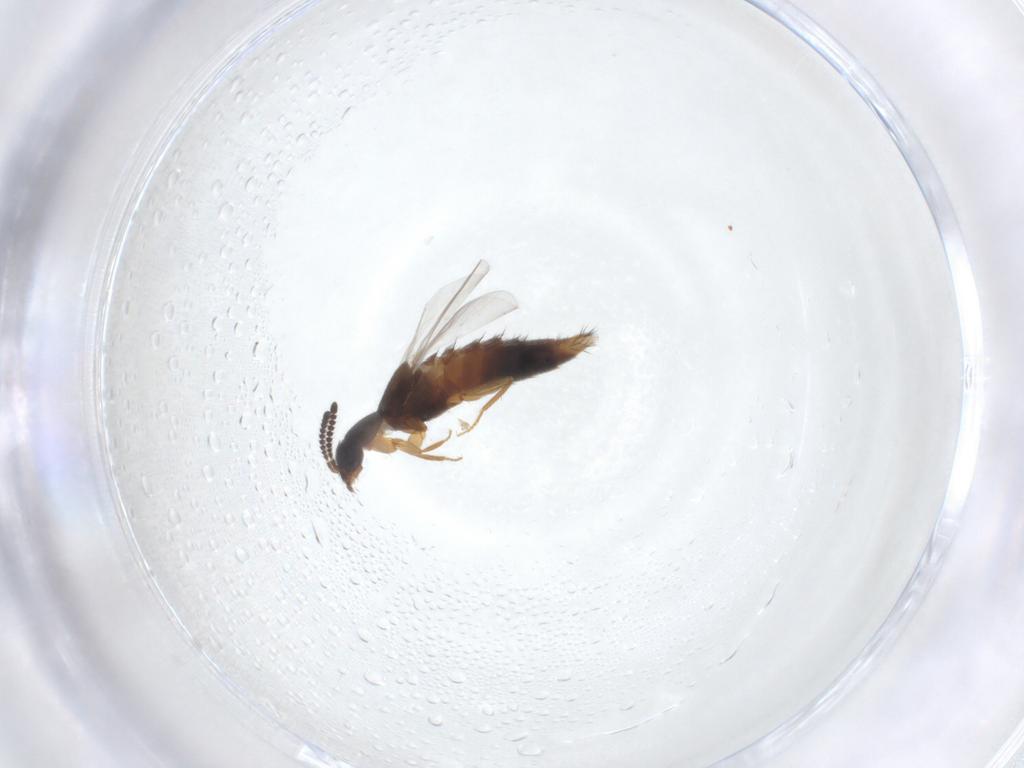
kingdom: Animalia
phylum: Arthropoda
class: Insecta
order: Coleoptera
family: Staphylinidae
